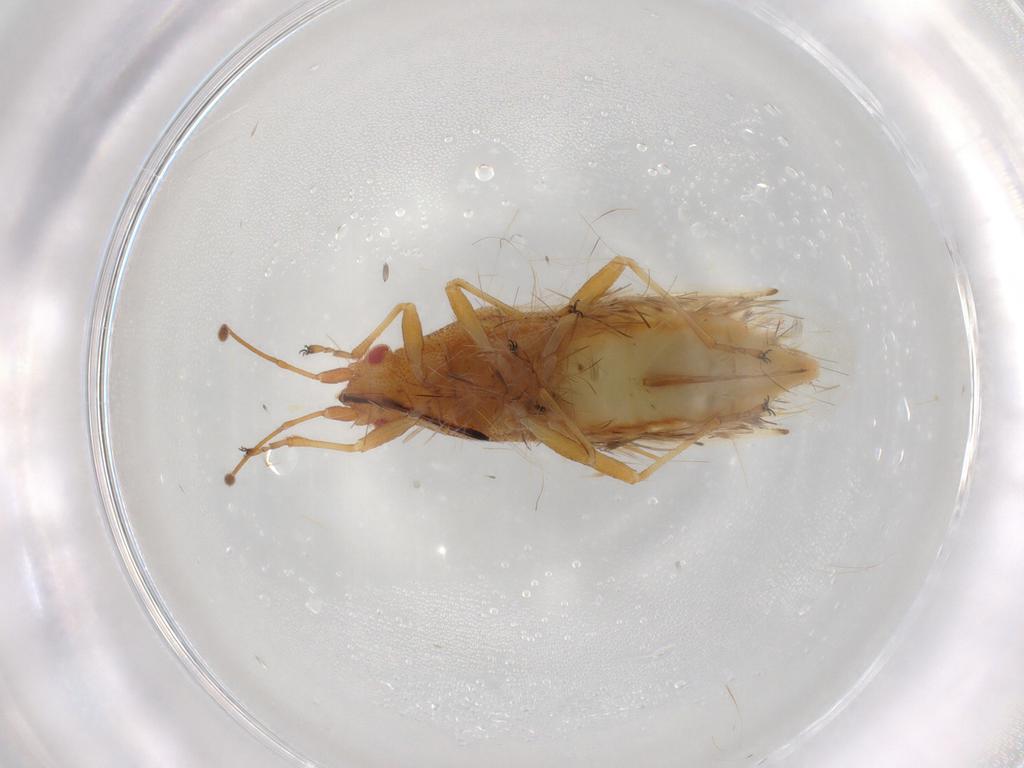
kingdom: Animalia
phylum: Arthropoda
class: Insecta
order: Hemiptera
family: Cymidae
